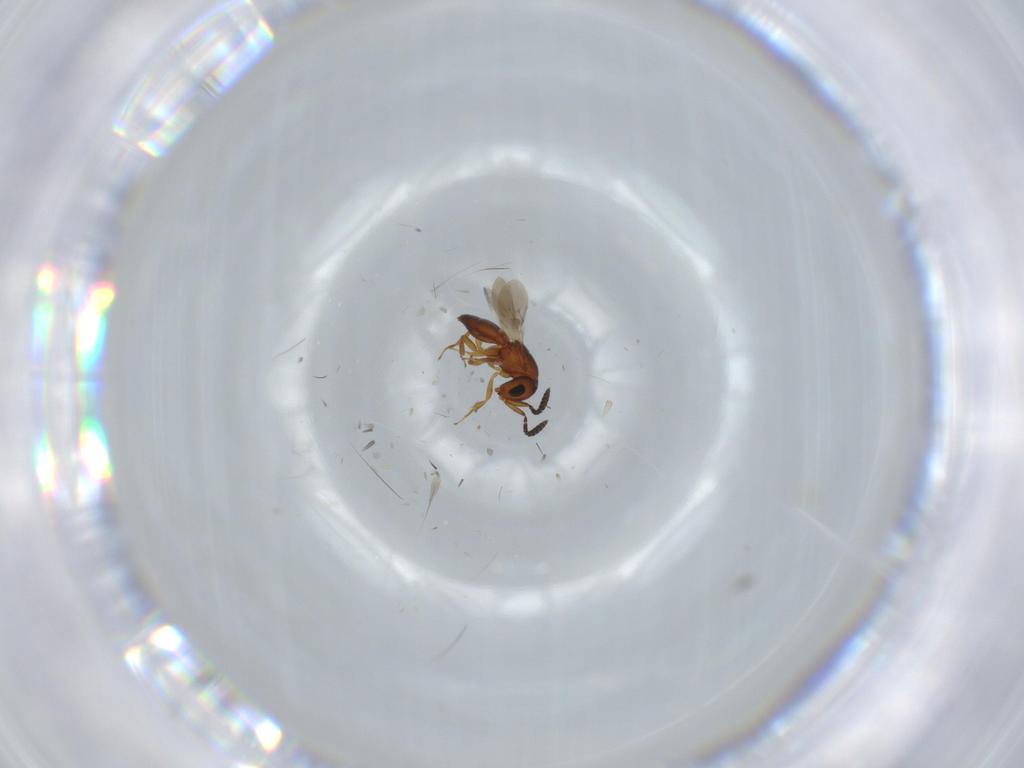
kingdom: Animalia
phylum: Arthropoda
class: Insecta
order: Hymenoptera
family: Scelionidae
